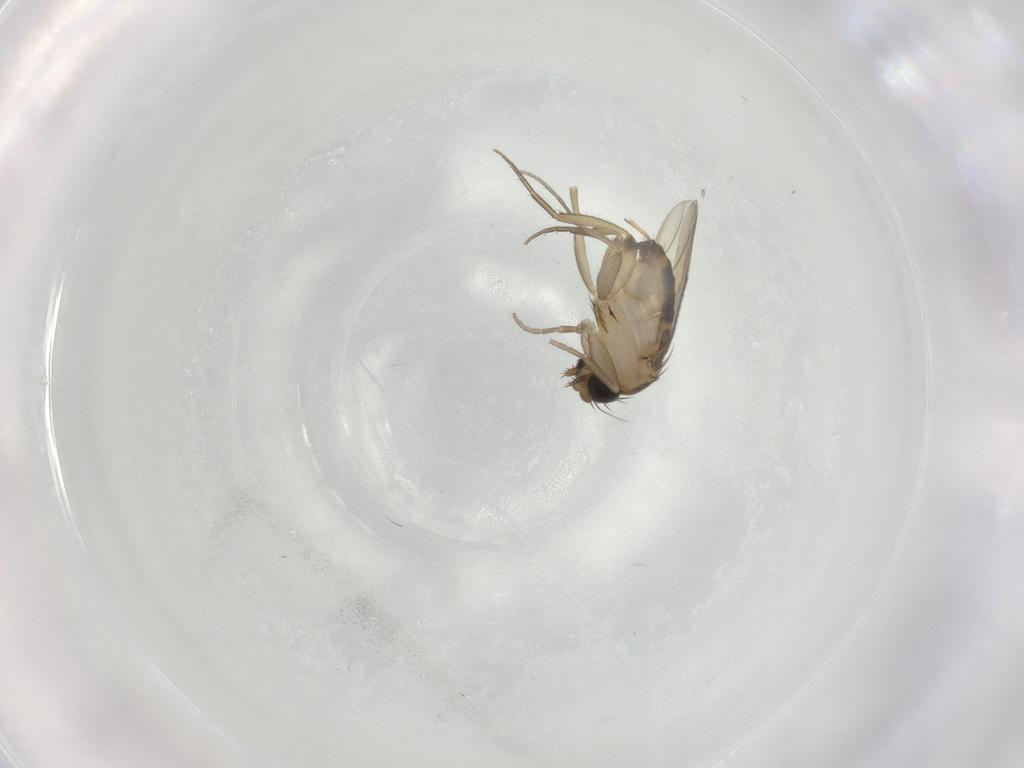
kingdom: Animalia
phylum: Arthropoda
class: Insecta
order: Diptera
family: Phoridae
